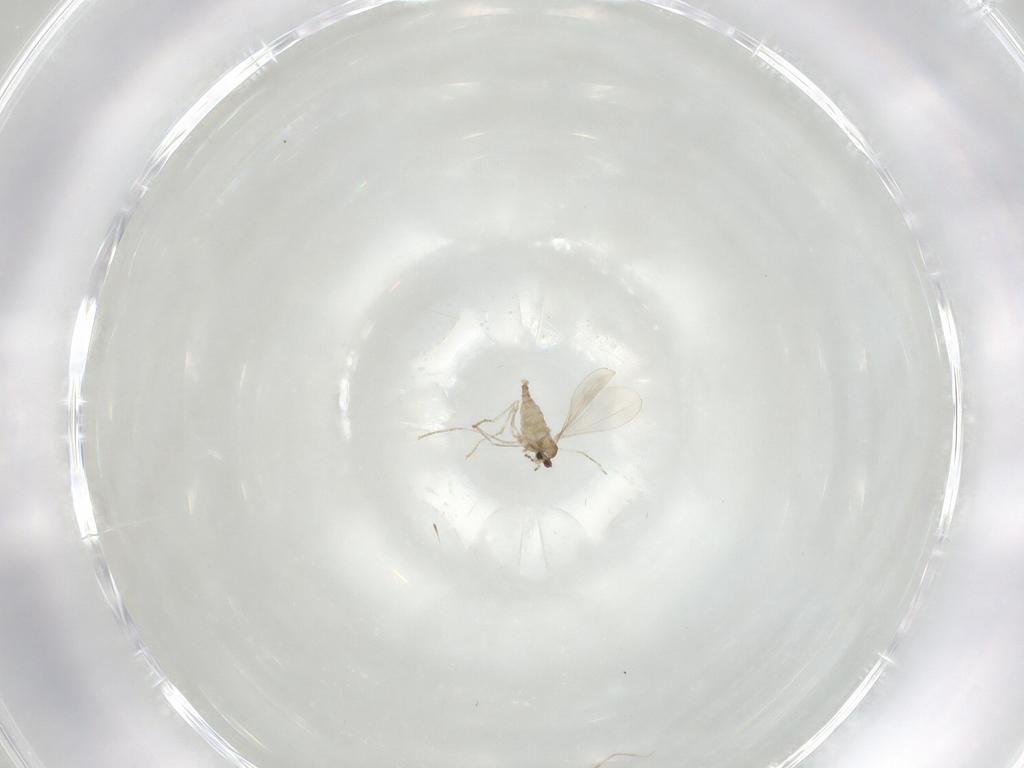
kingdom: Animalia
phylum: Arthropoda
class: Insecta
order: Diptera
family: Cecidomyiidae
